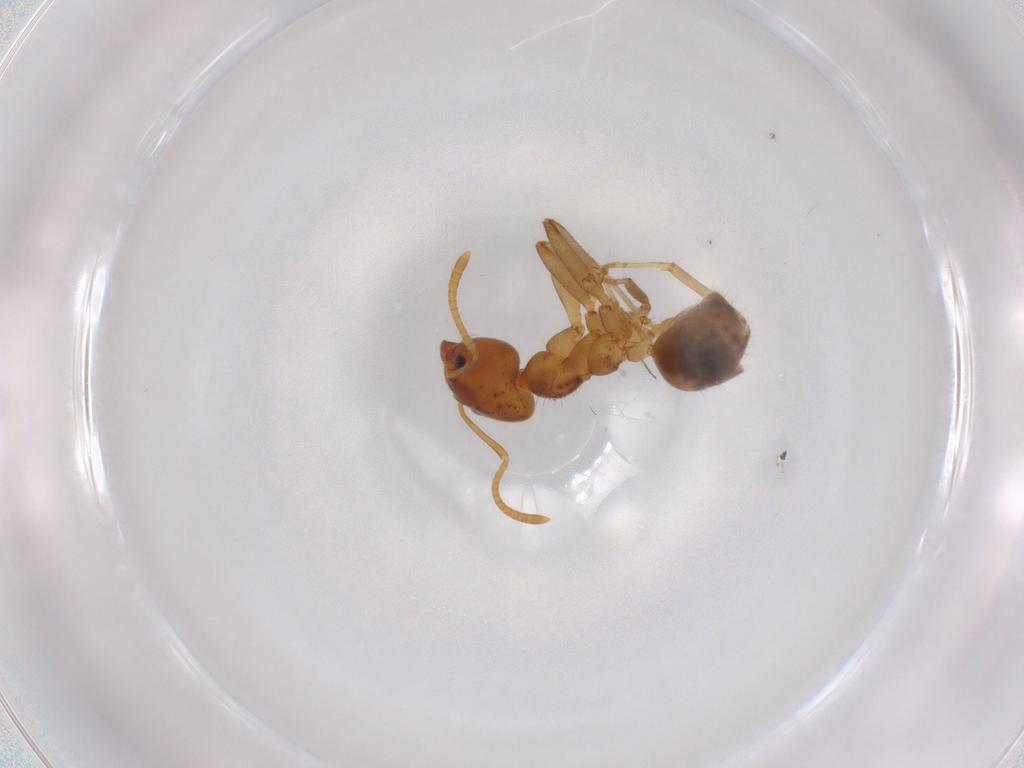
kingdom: Animalia
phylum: Arthropoda
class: Insecta
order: Hymenoptera
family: Formicidae
